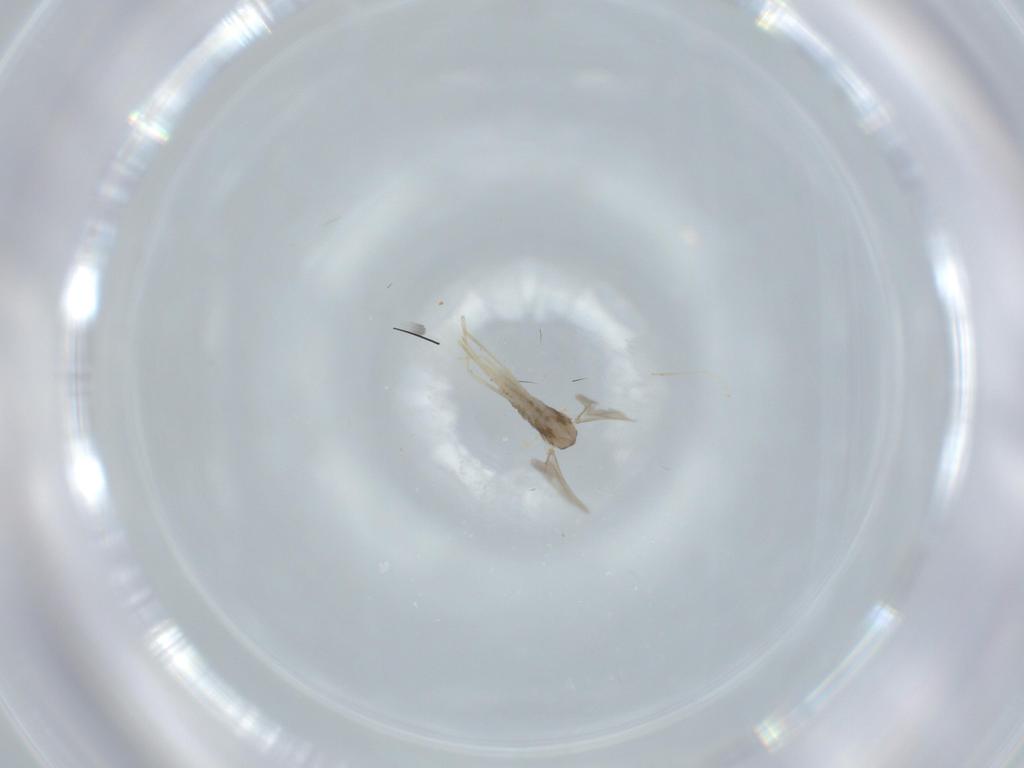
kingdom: Animalia
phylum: Arthropoda
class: Insecta
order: Diptera
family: Cecidomyiidae
